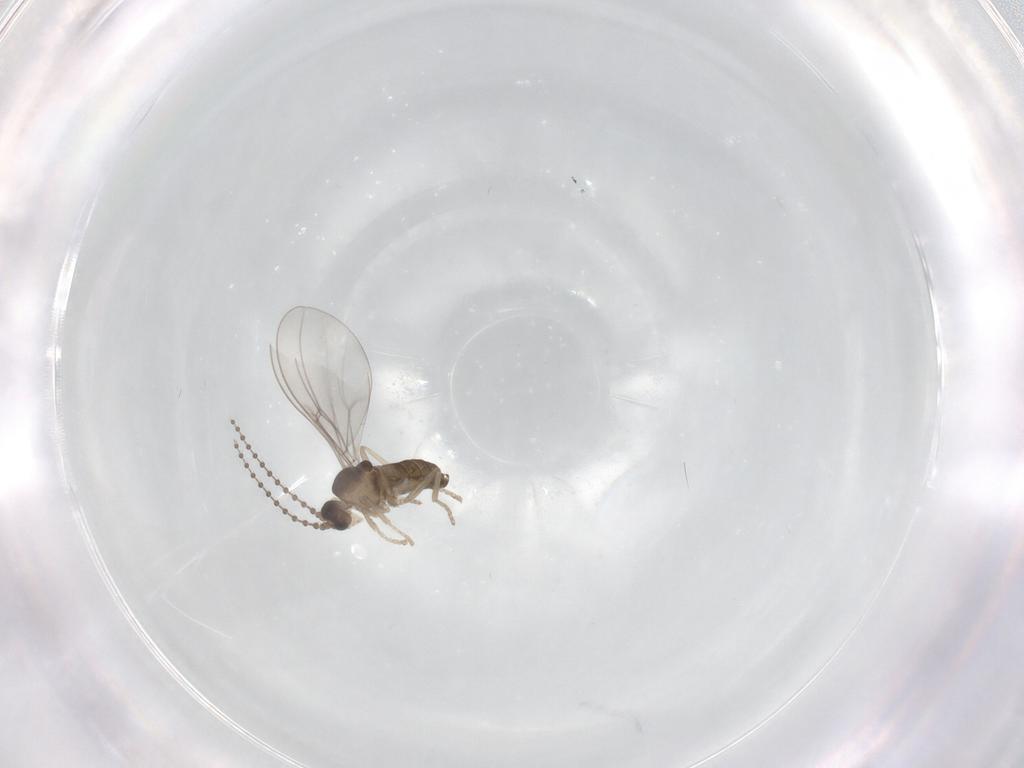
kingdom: Animalia
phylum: Arthropoda
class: Insecta
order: Diptera
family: Cecidomyiidae
